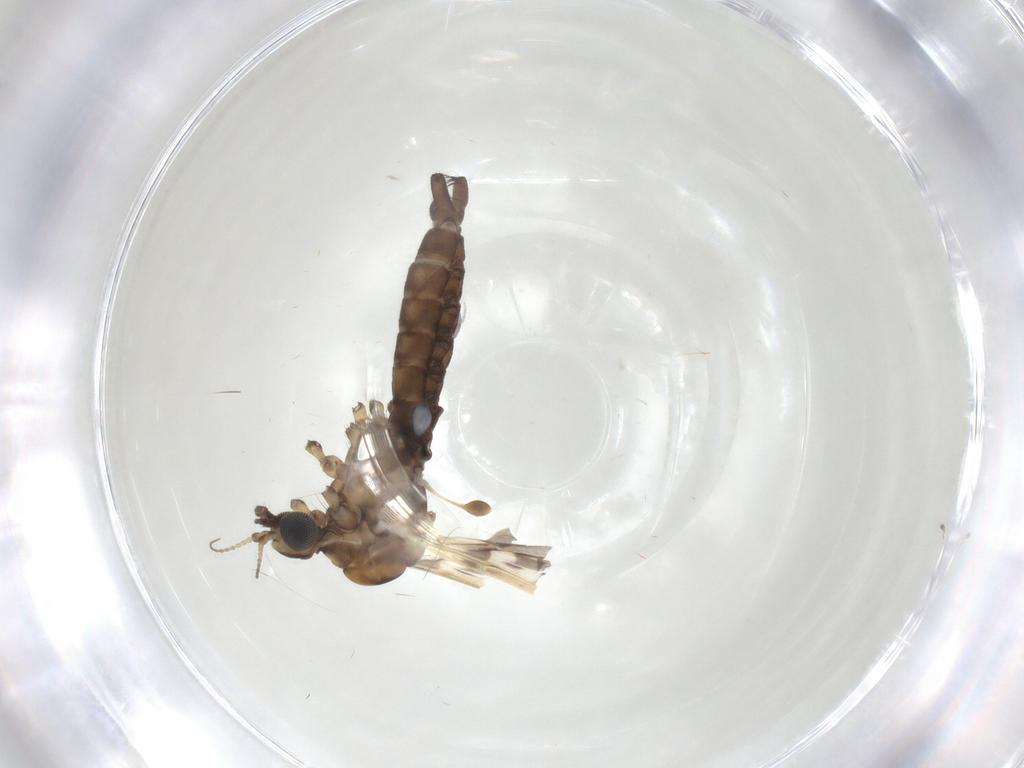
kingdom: Animalia
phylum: Arthropoda
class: Insecta
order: Diptera
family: Limoniidae
